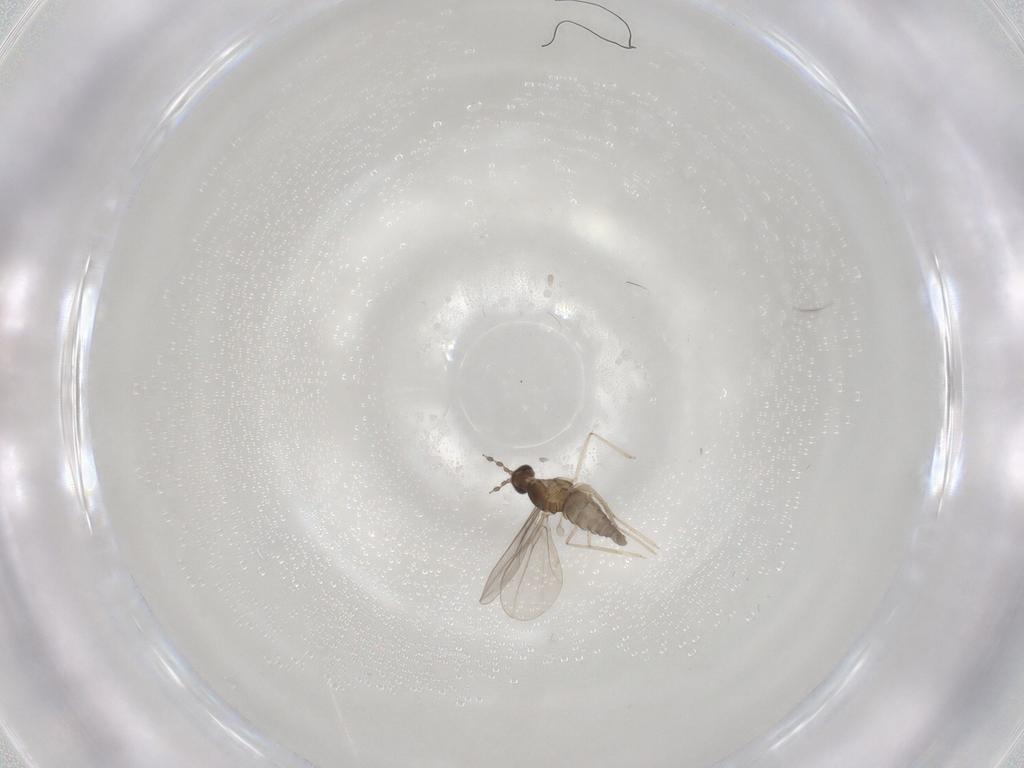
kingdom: Animalia
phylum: Arthropoda
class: Insecta
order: Diptera
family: Cecidomyiidae
